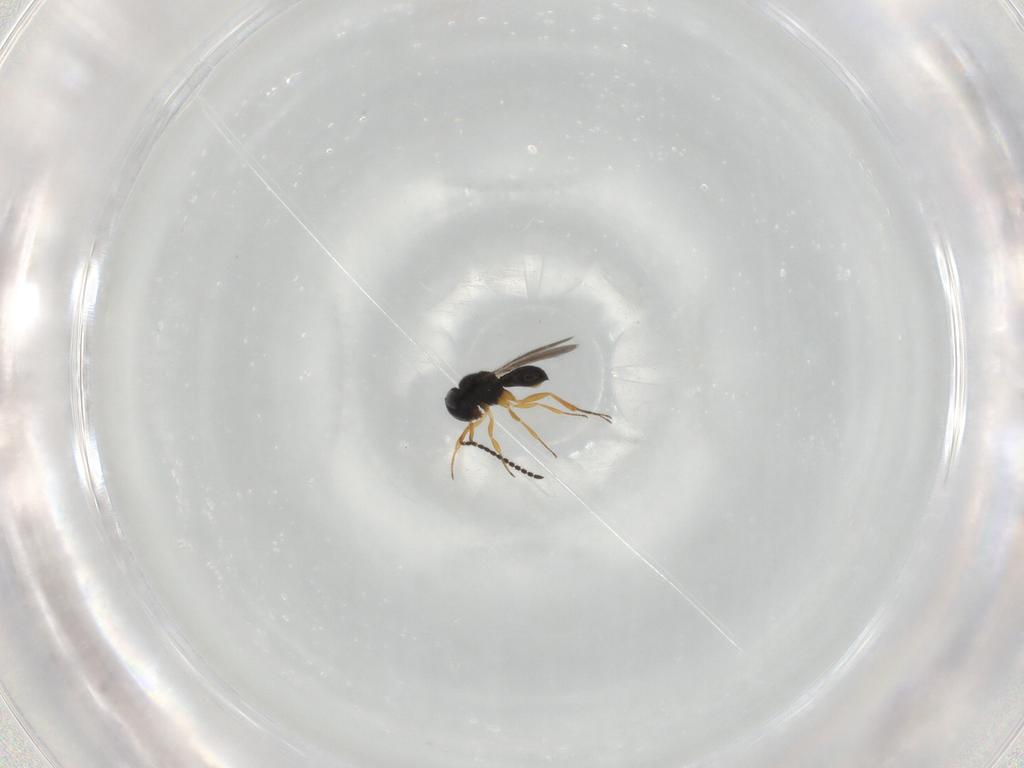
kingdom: Animalia
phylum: Arthropoda
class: Insecta
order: Hymenoptera
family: Scelionidae
